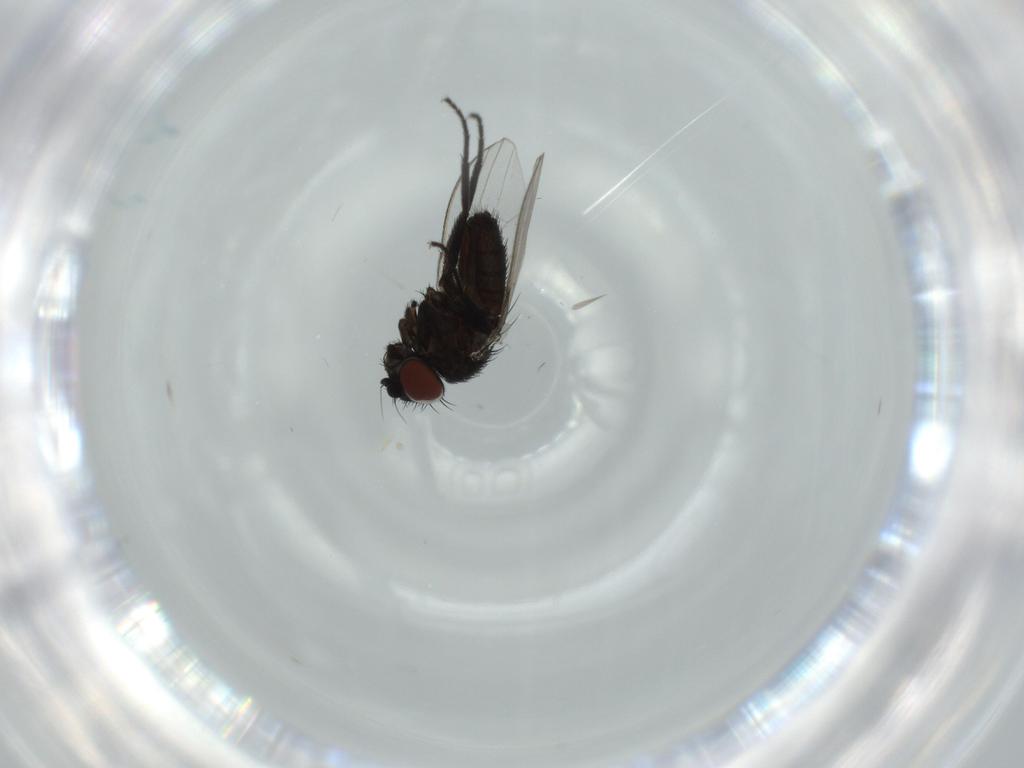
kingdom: Animalia
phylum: Arthropoda
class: Insecta
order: Diptera
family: Milichiidae
